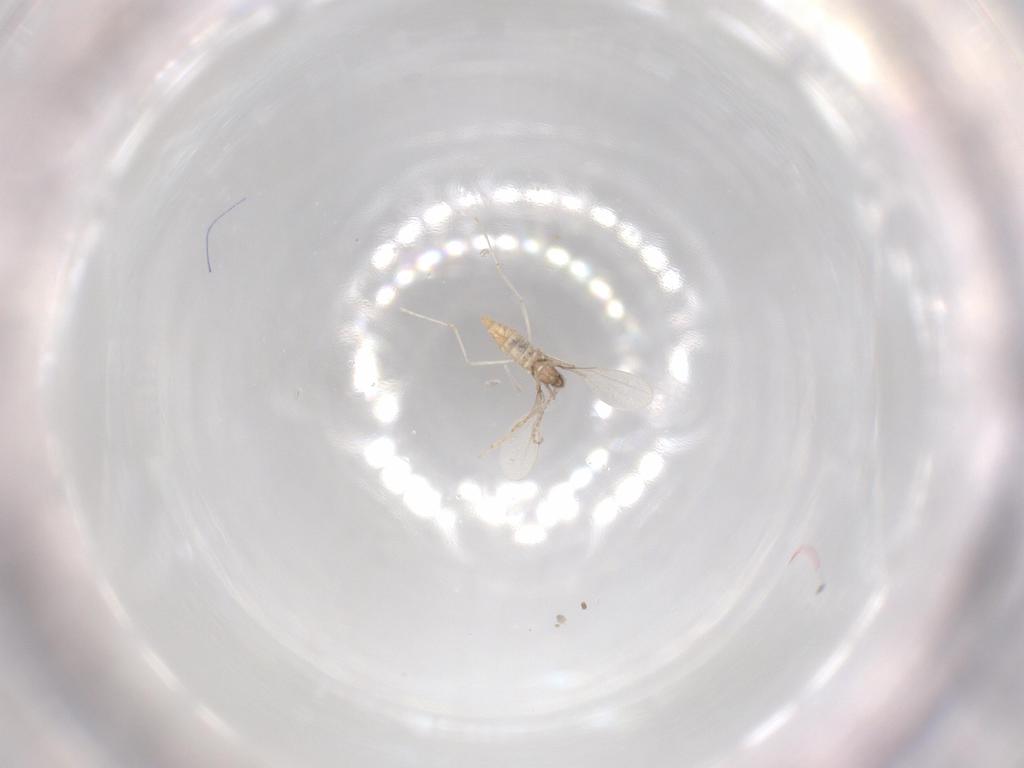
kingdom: Animalia
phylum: Arthropoda
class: Insecta
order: Diptera
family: Cecidomyiidae
